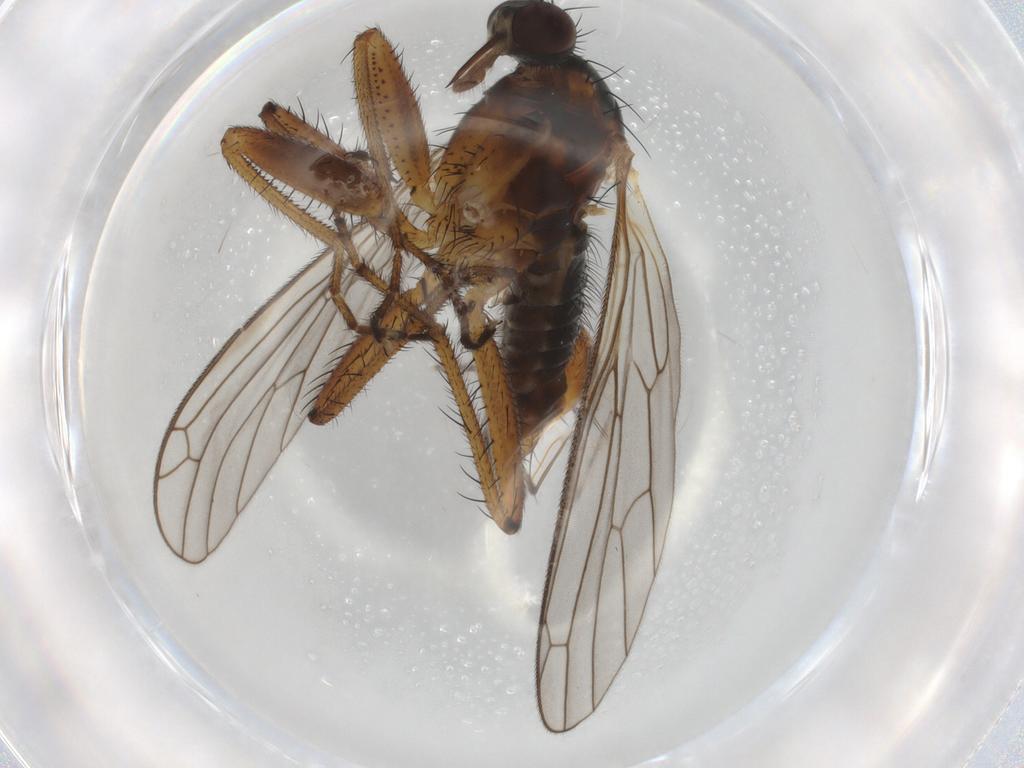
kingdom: Animalia
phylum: Arthropoda
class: Insecta
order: Diptera
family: Empididae
